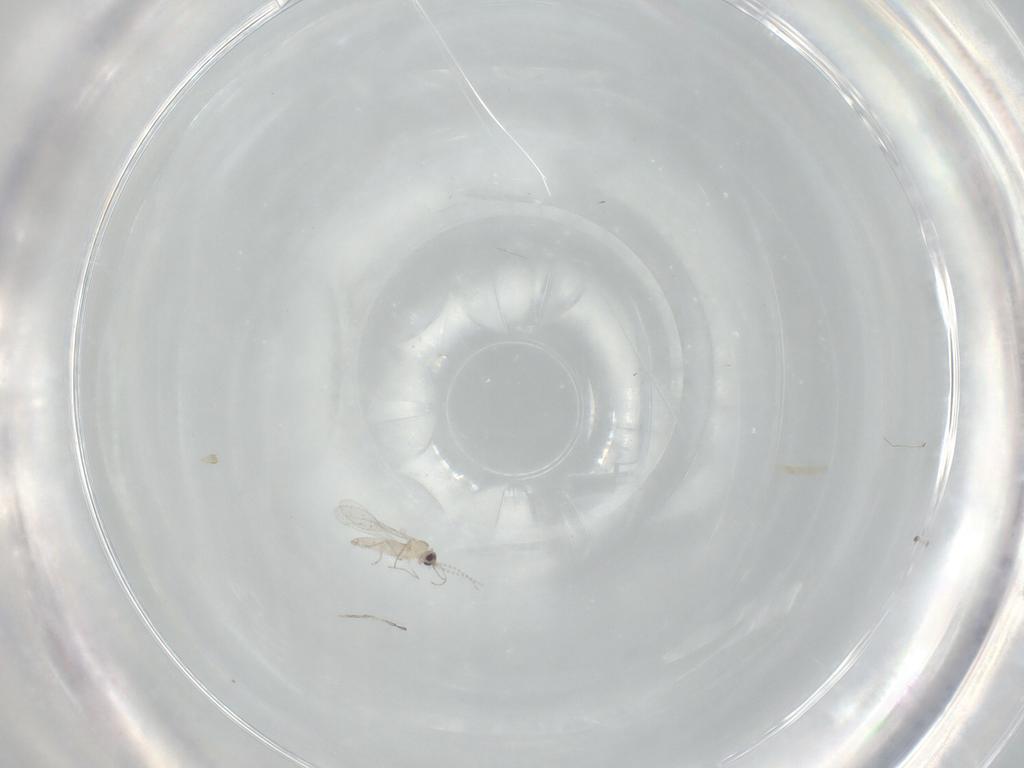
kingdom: Animalia
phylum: Arthropoda
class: Insecta
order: Diptera
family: Cecidomyiidae
